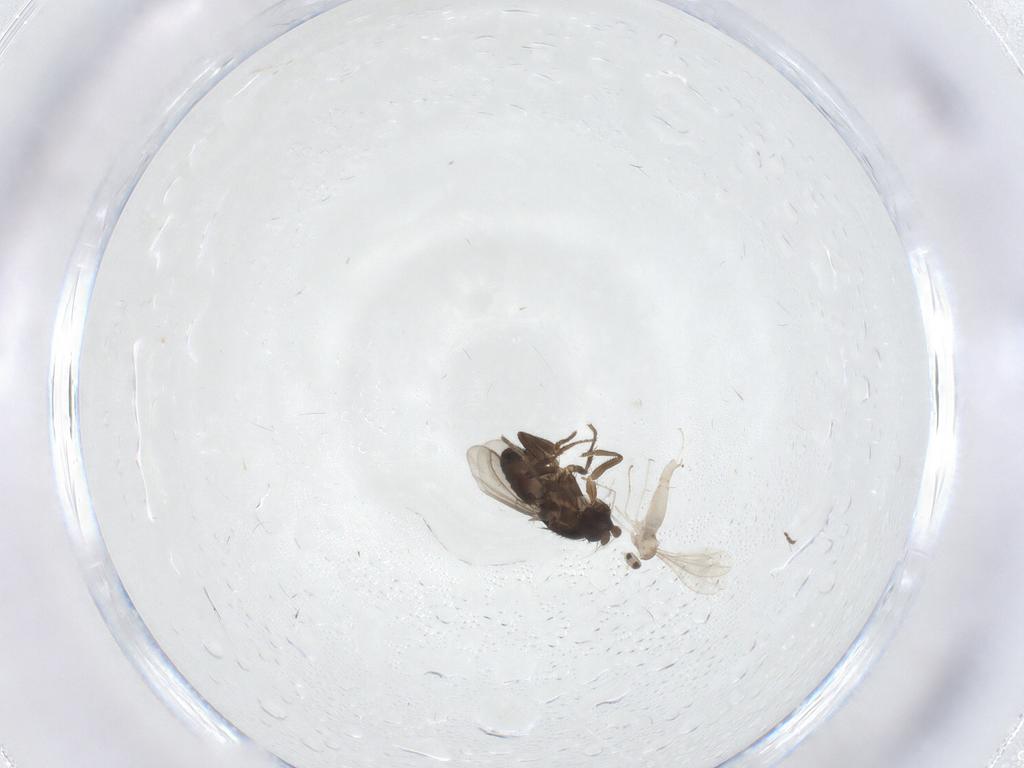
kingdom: Animalia
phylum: Arthropoda
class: Insecta
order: Diptera
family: Cecidomyiidae
